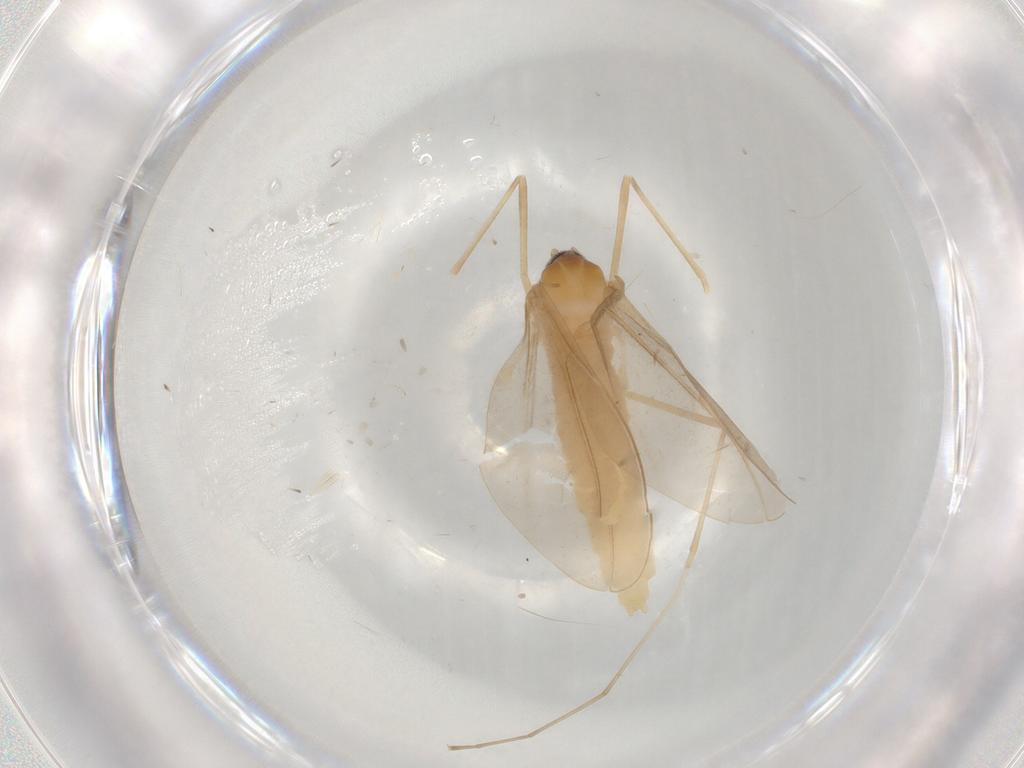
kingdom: Animalia
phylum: Arthropoda
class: Insecta
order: Diptera
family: Cecidomyiidae
